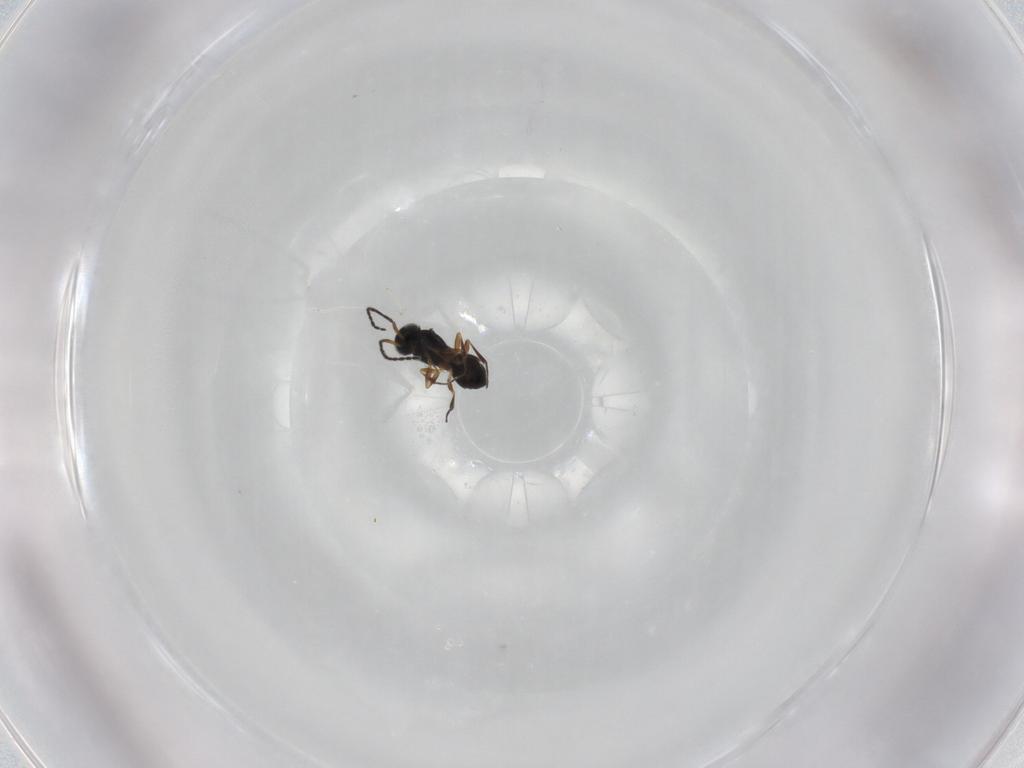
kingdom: Animalia
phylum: Arthropoda
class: Insecta
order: Hymenoptera
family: Scelionidae
